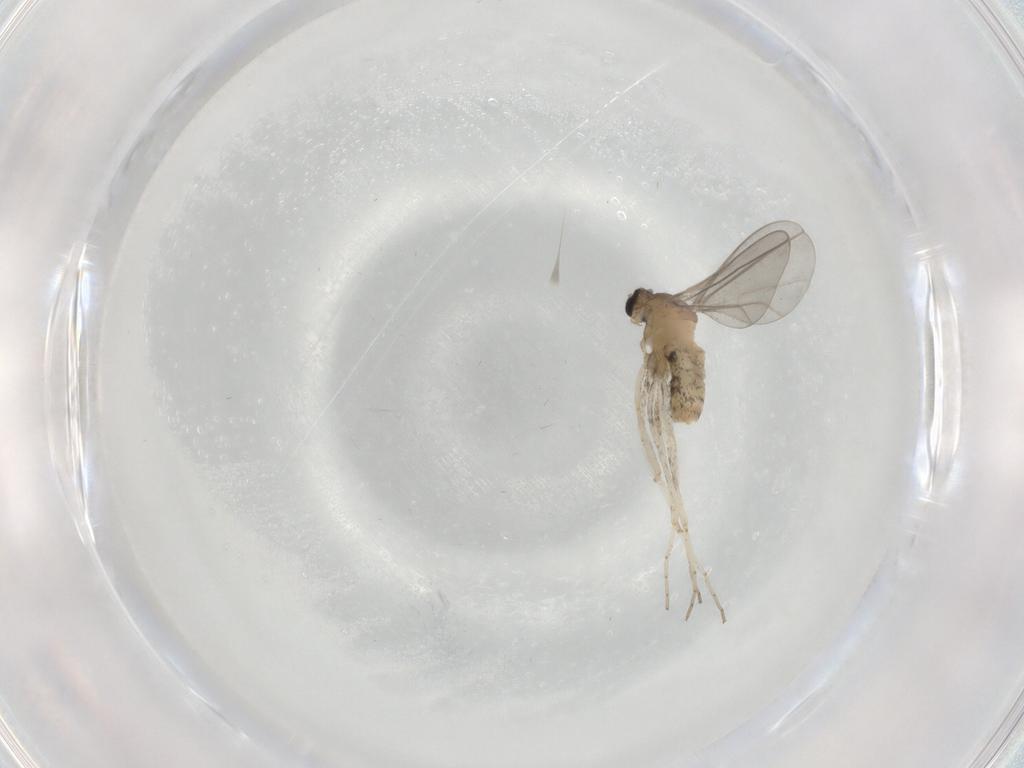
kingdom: Animalia
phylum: Arthropoda
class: Insecta
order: Diptera
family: Cecidomyiidae
